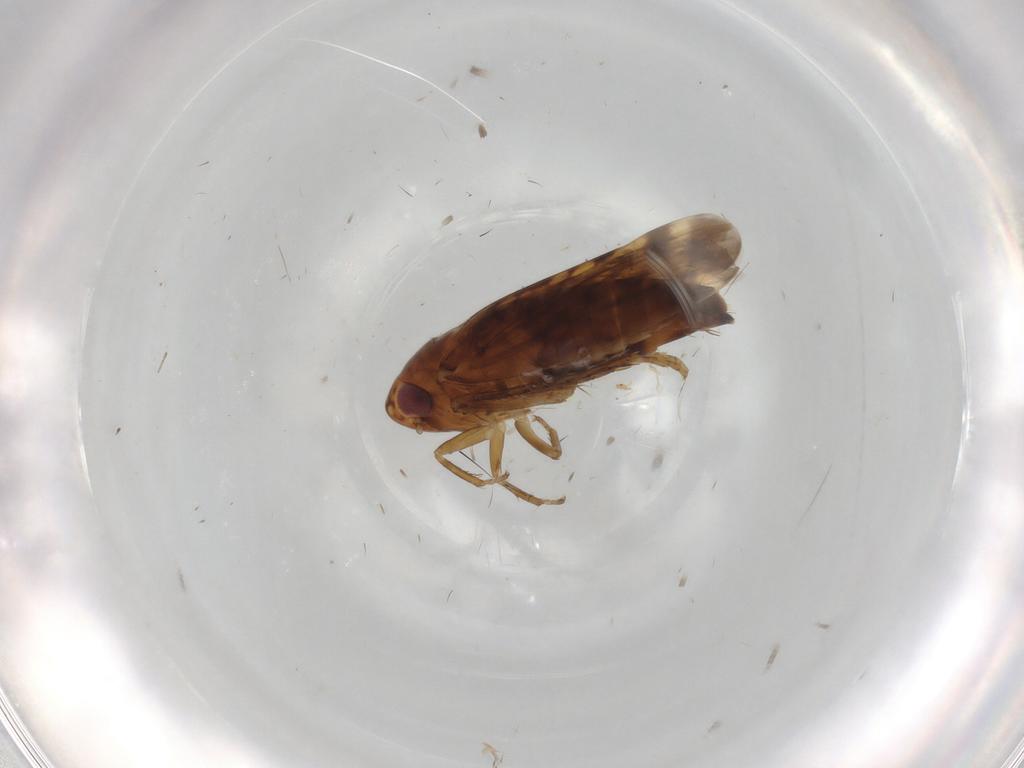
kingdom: Animalia
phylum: Arthropoda
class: Insecta
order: Hemiptera
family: Cicadellidae
